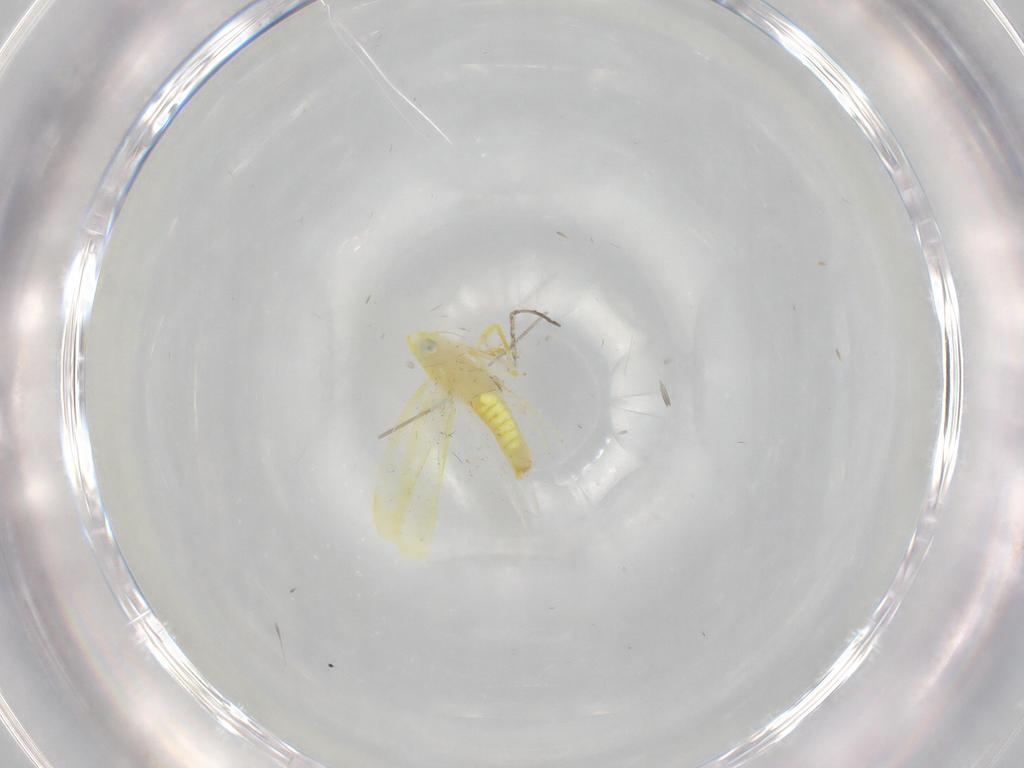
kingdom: Animalia
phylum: Arthropoda
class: Insecta
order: Hemiptera
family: Aleyrodidae
